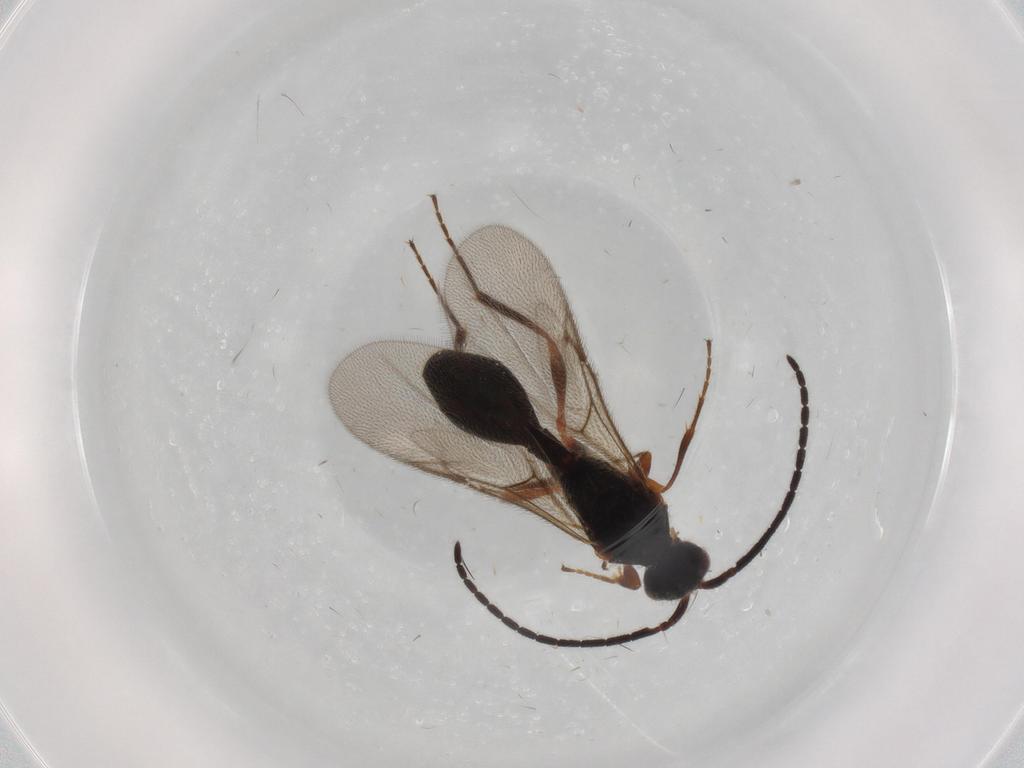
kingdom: Animalia
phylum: Arthropoda
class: Insecta
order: Hymenoptera
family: Diapriidae
